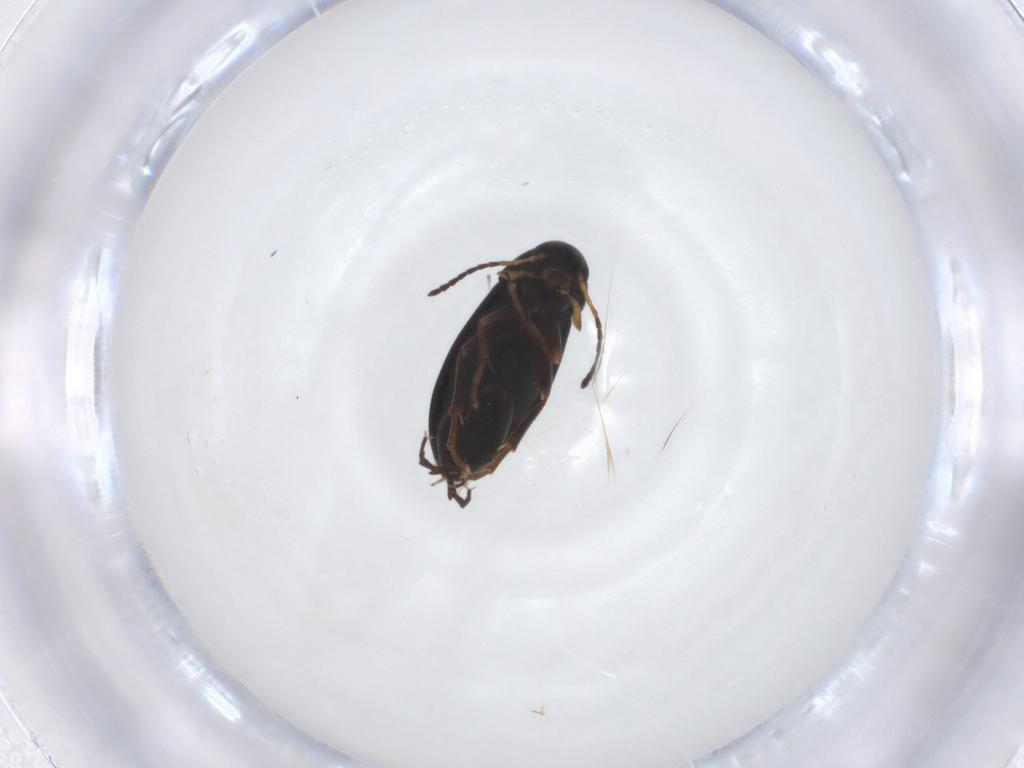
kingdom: Animalia
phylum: Arthropoda
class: Insecta
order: Coleoptera
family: Scraptiidae
